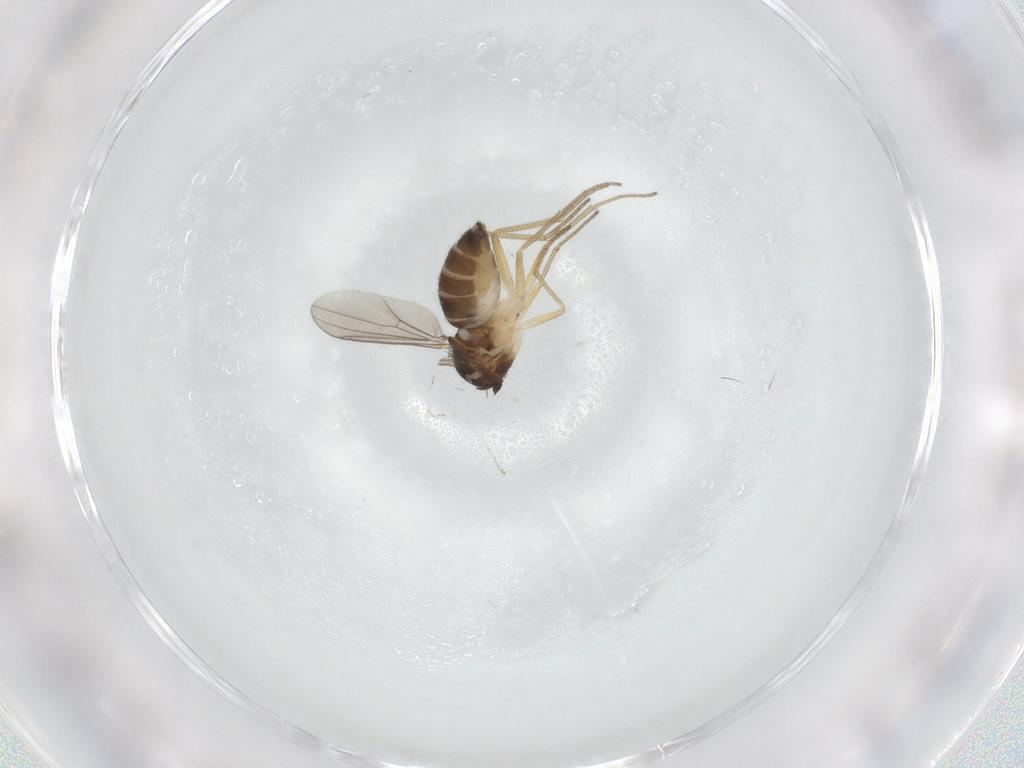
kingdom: Animalia
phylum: Arthropoda
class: Insecta
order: Diptera
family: Dolichopodidae
